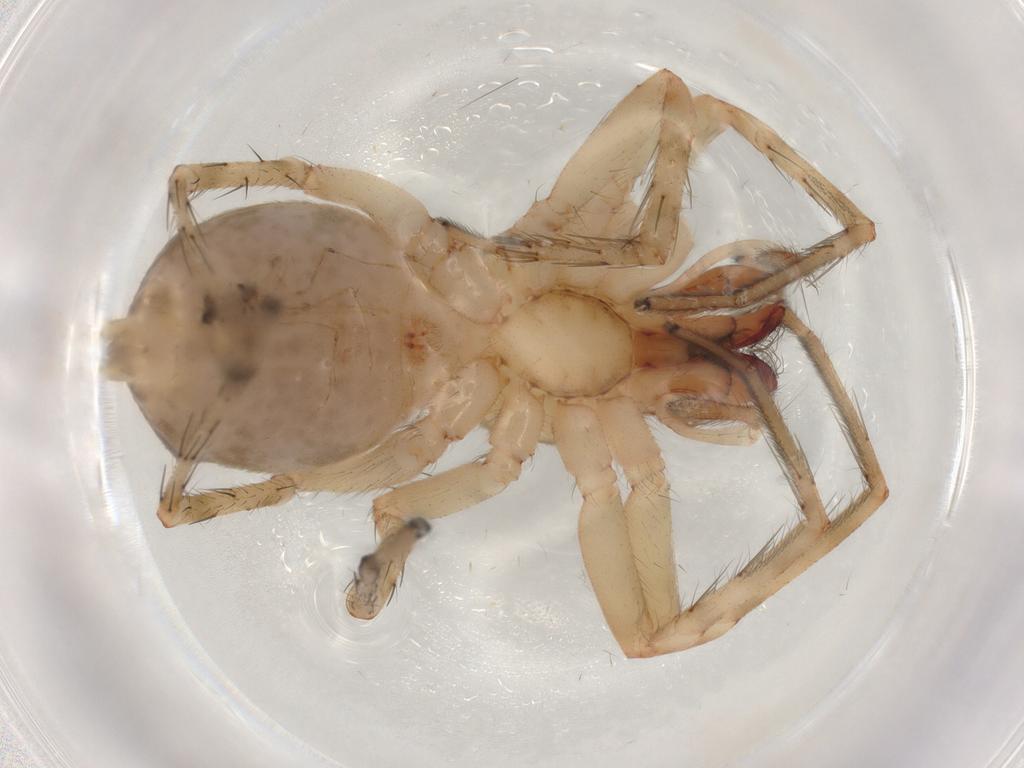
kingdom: Animalia
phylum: Arthropoda
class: Arachnida
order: Araneae
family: Anyphaenidae
